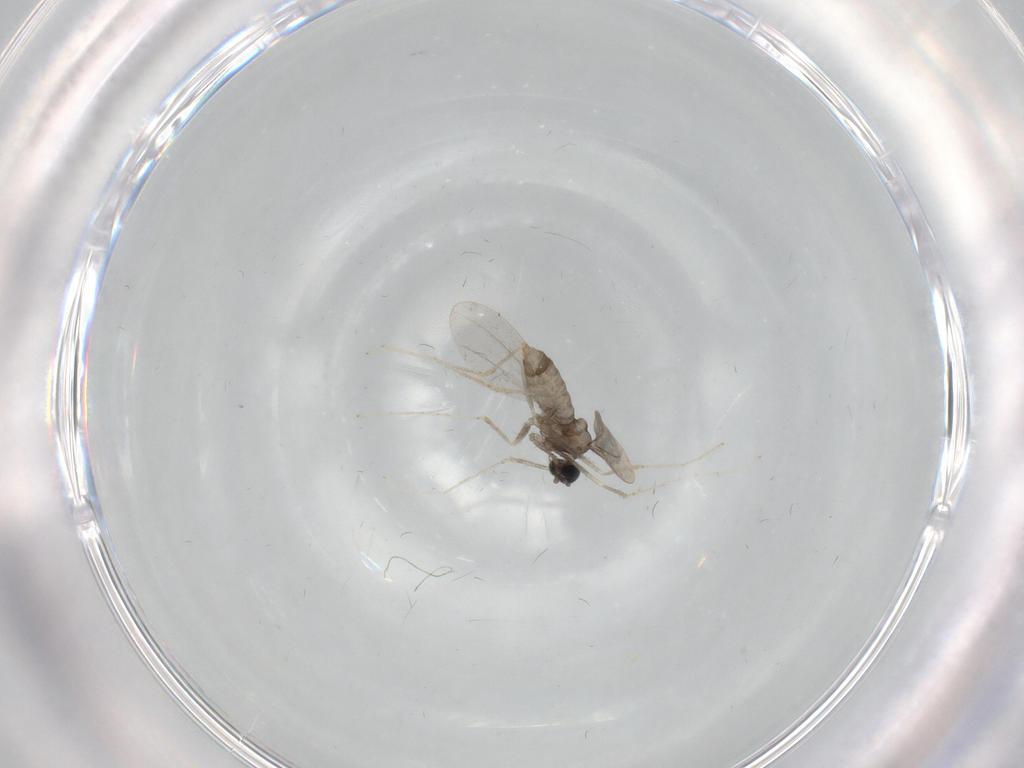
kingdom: Animalia
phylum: Arthropoda
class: Insecta
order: Diptera
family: Cecidomyiidae
